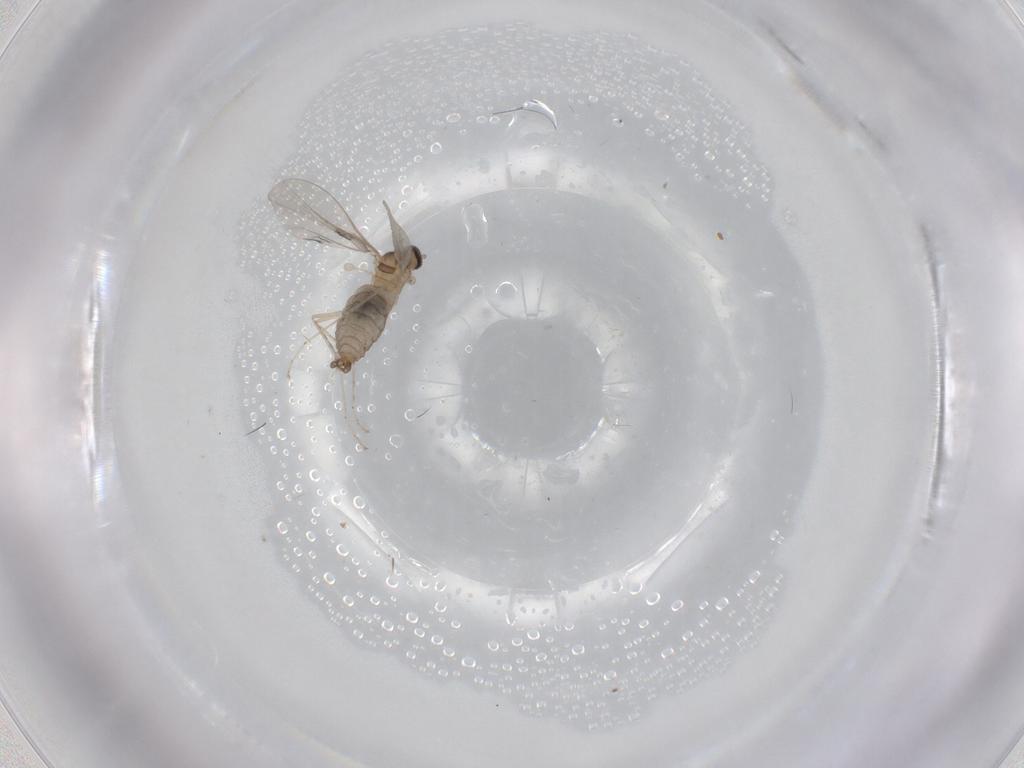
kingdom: Animalia
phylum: Arthropoda
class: Insecta
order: Diptera
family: Cecidomyiidae
